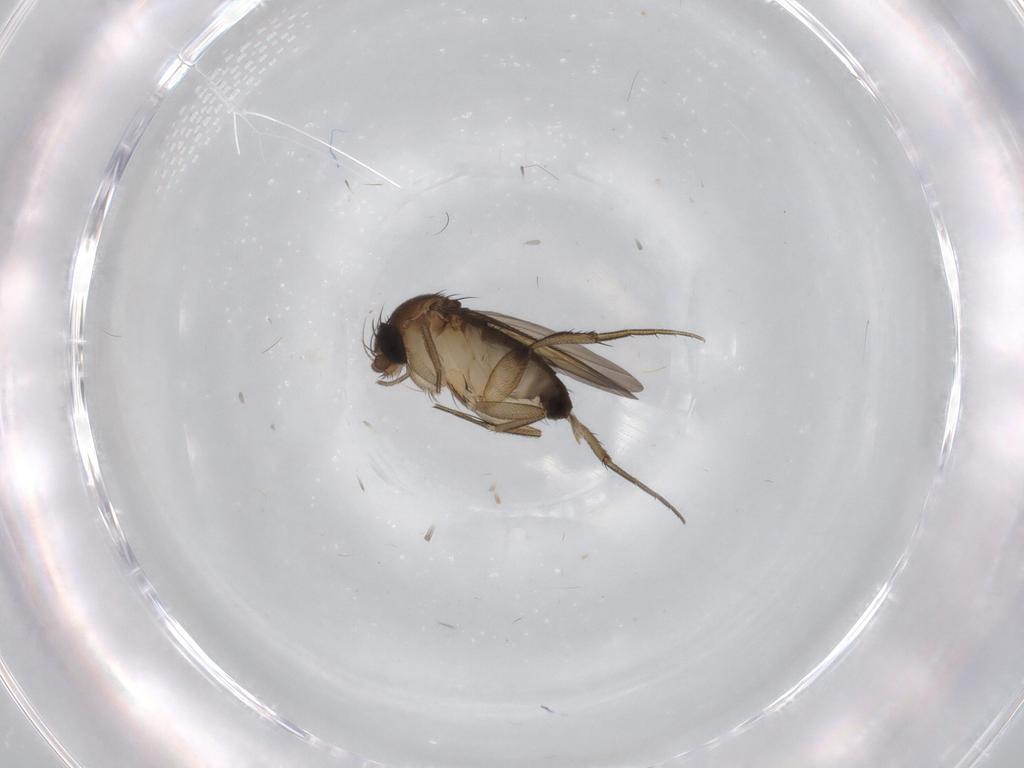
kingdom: Animalia
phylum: Arthropoda
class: Insecta
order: Diptera
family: Phoridae
